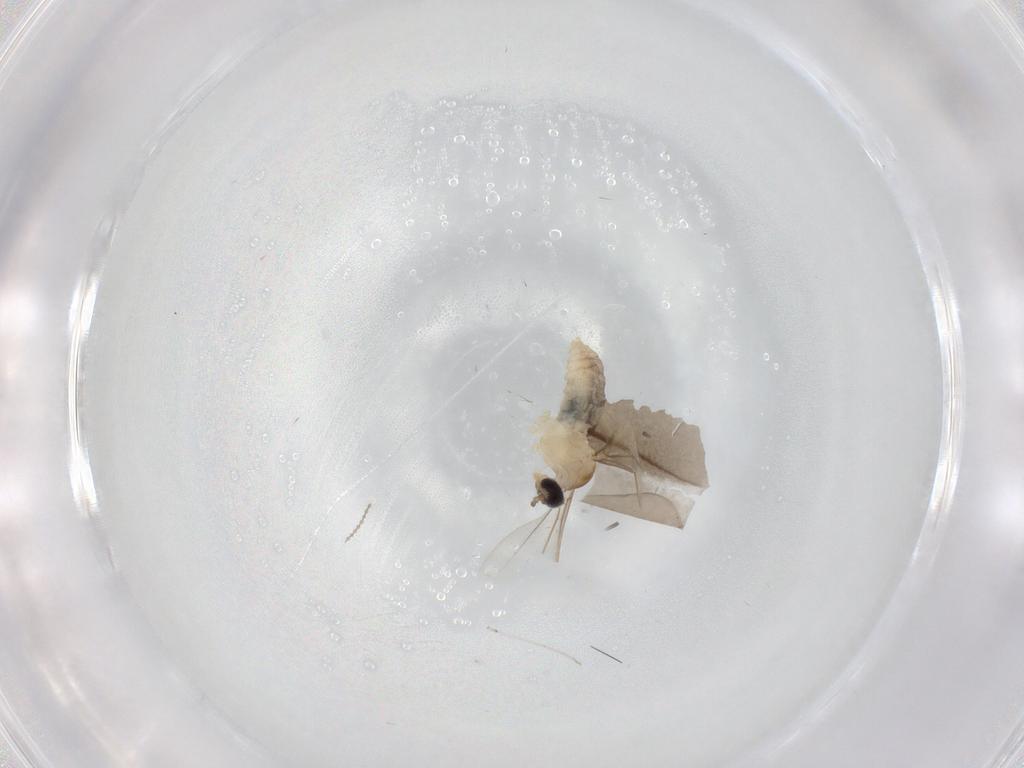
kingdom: Animalia
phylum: Arthropoda
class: Insecta
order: Diptera
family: Cecidomyiidae
